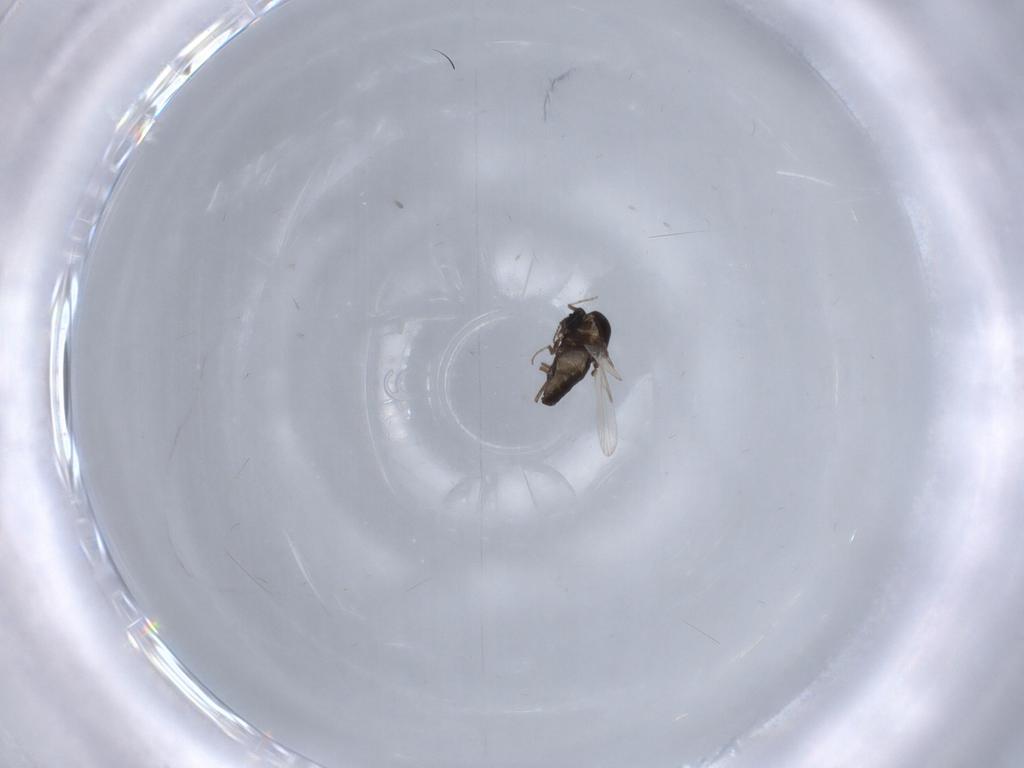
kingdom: Animalia
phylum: Arthropoda
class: Insecta
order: Diptera
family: Ceratopogonidae
